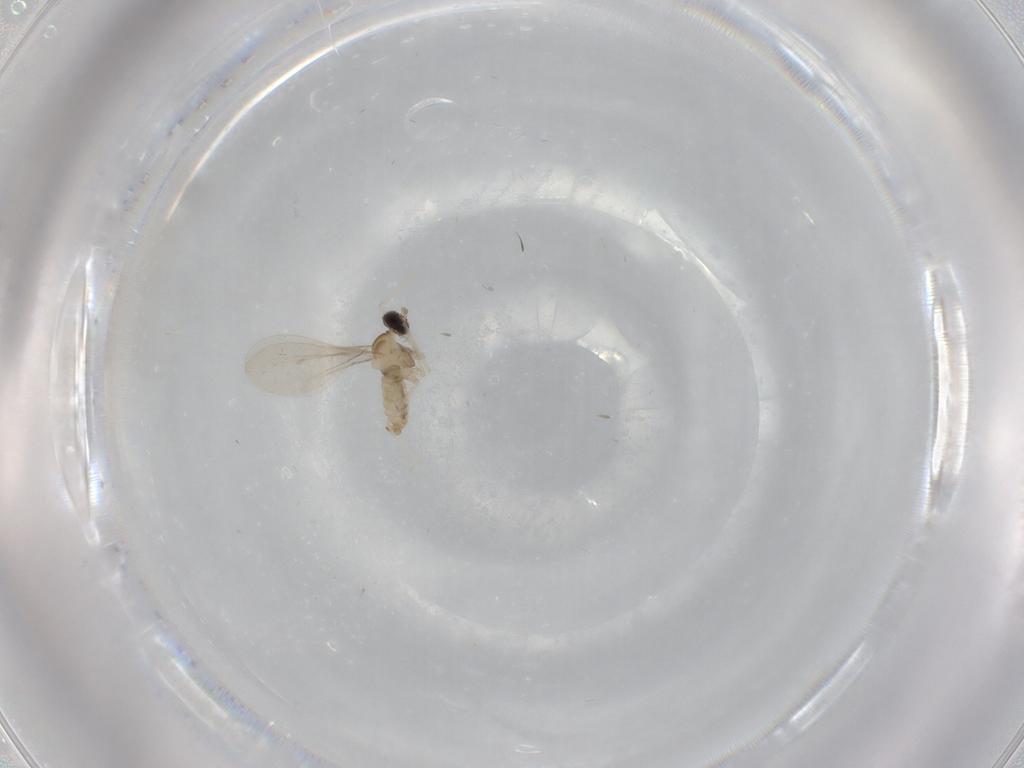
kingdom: Animalia
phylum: Arthropoda
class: Insecta
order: Diptera
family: Cecidomyiidae
